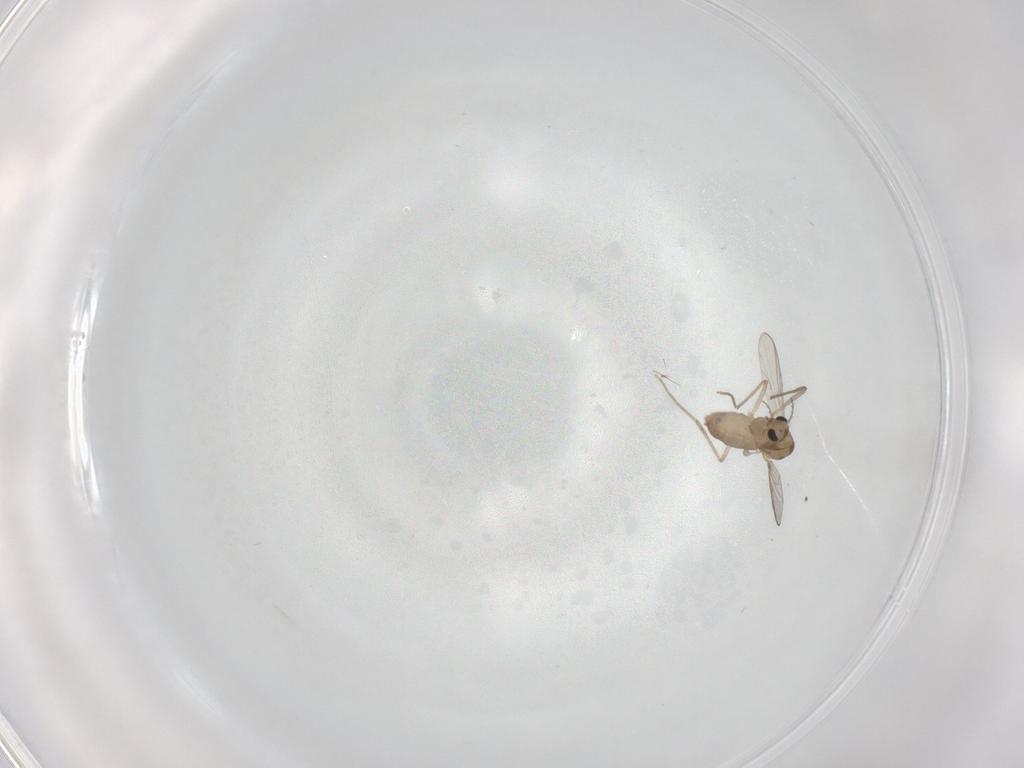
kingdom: Animalia
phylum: Arthropoda
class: Insecta
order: Diptera
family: Chironomidae
